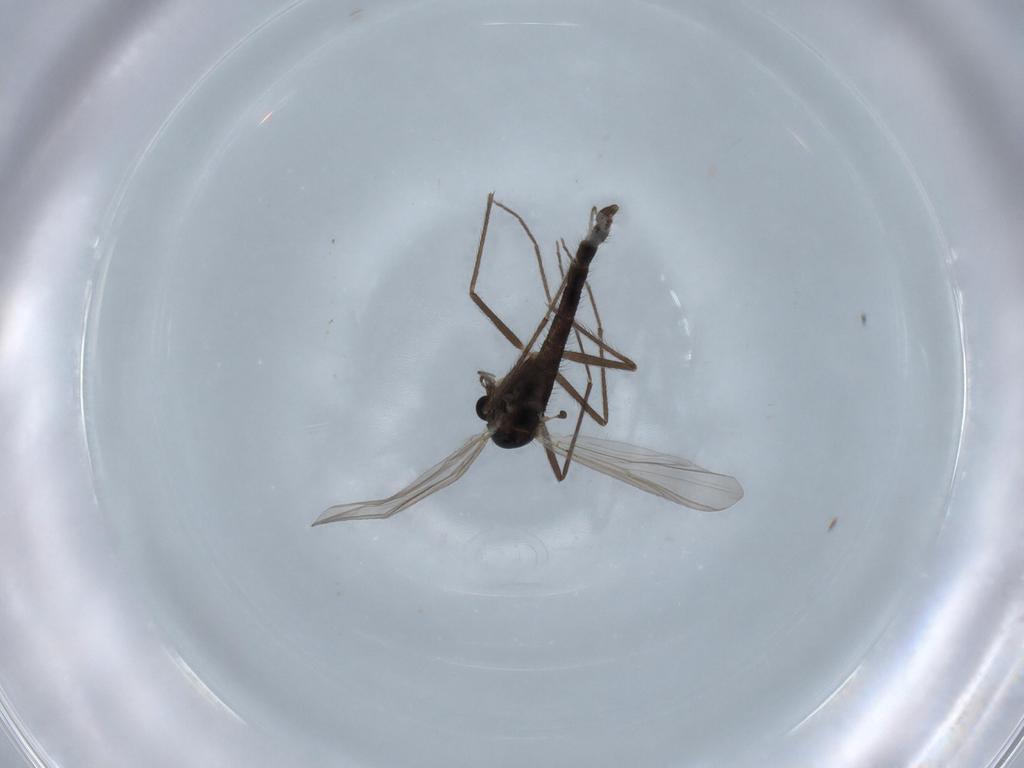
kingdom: Animalia
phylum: Arthropoda
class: Insecta
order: Diptera
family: Chironomidae
